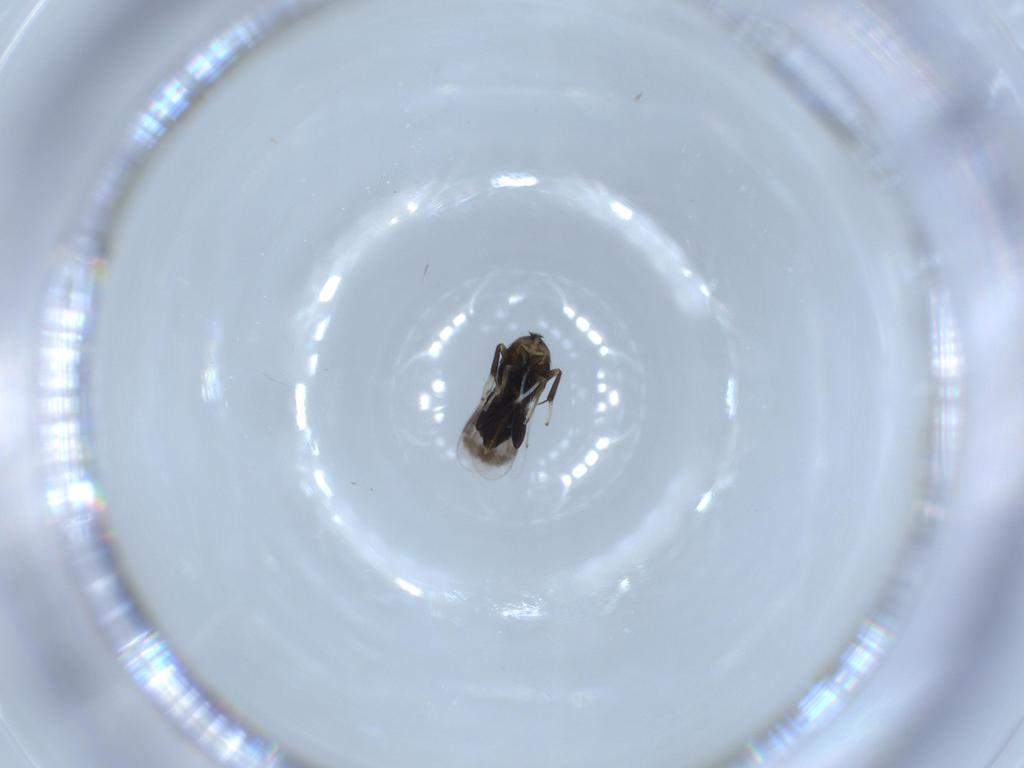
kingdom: Animalia
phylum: Arthropoda
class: Insecta
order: Hymenoptera
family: Aphelinidae
